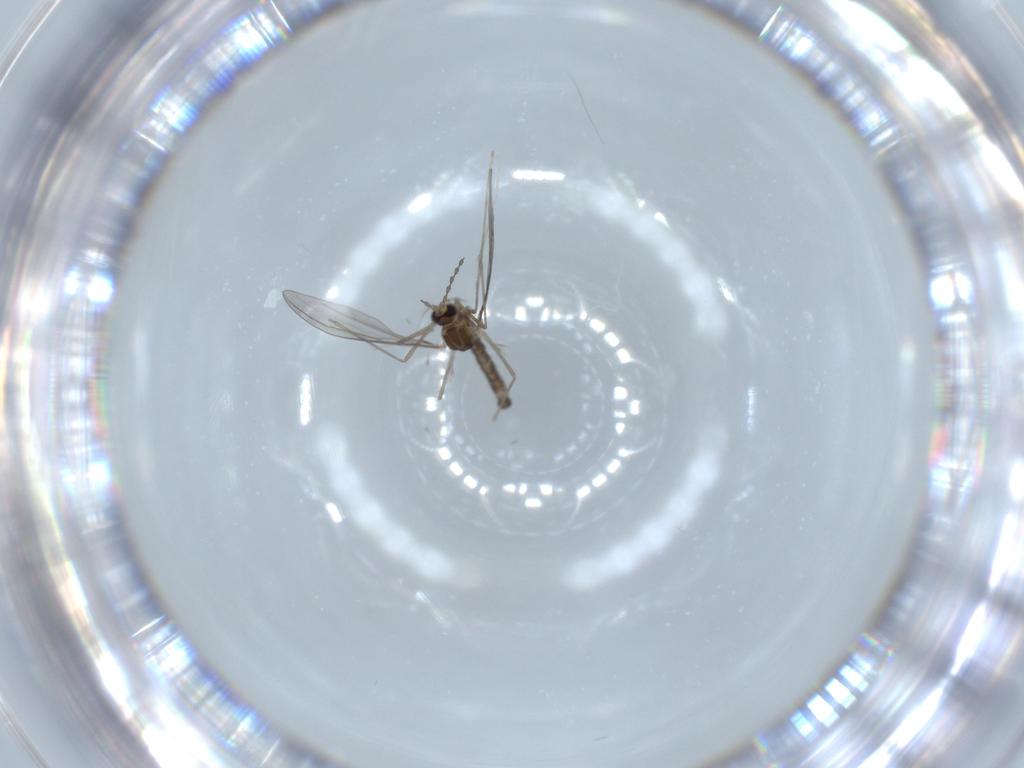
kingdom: Animalia
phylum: Arthropoda
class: Insecta
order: Diptera
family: Cecidomyiidae
